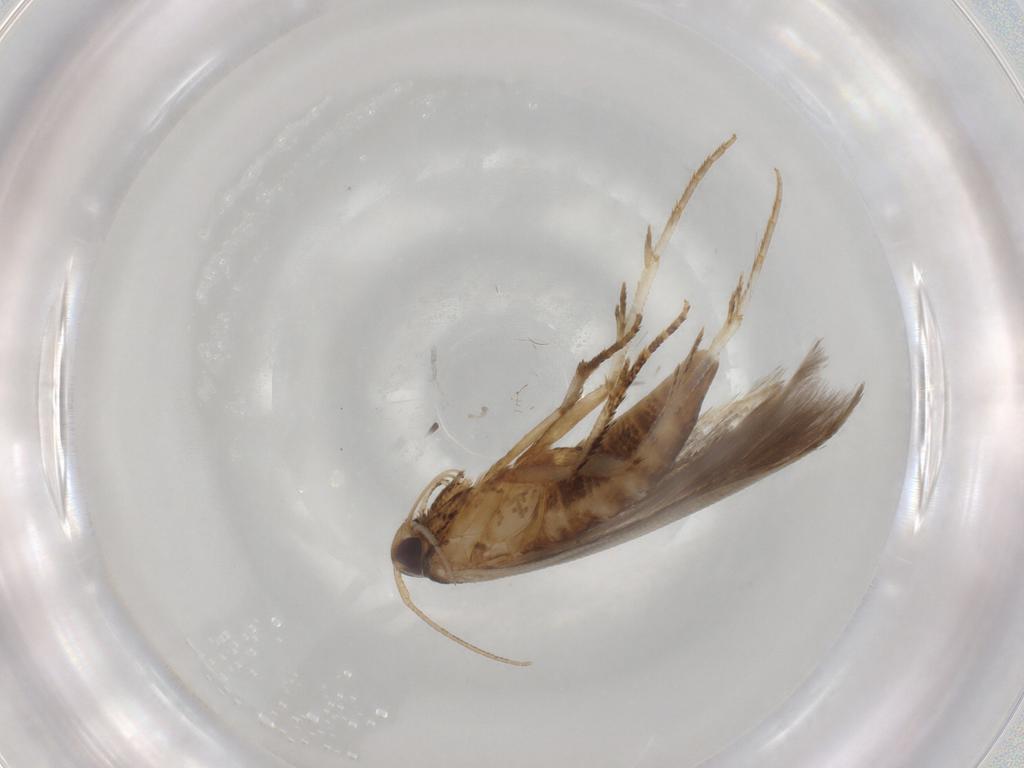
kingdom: Animalia
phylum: Arthropoda
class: Insecta
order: Lepidoptera
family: Cosmopterigidae
